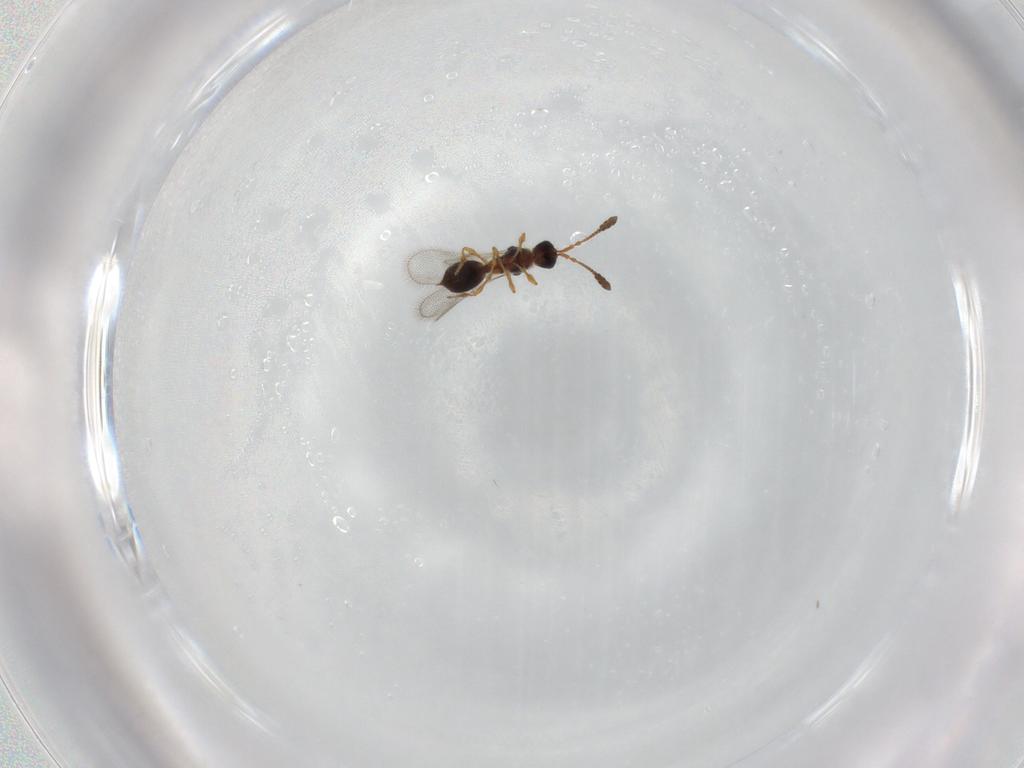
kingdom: Animalia
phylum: Arthropoda
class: Insecta
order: Hymenoptera
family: Diapriidae
